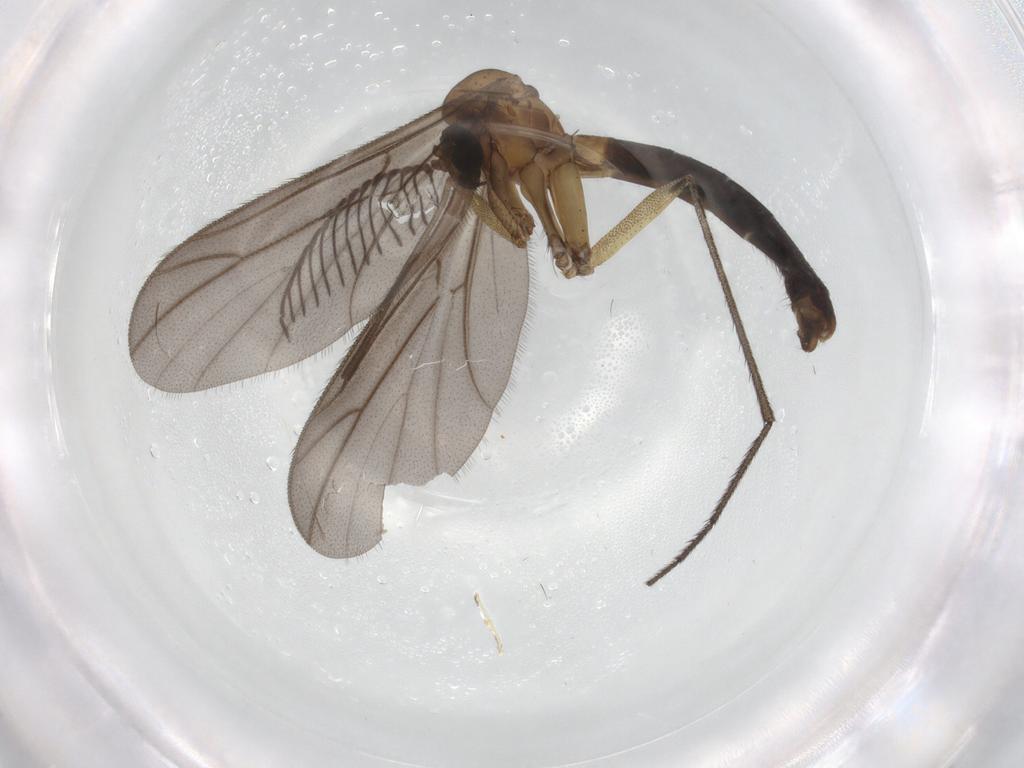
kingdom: Animalia
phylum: Arthropoda
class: Insecta
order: Diptera
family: Ditomyiidae
